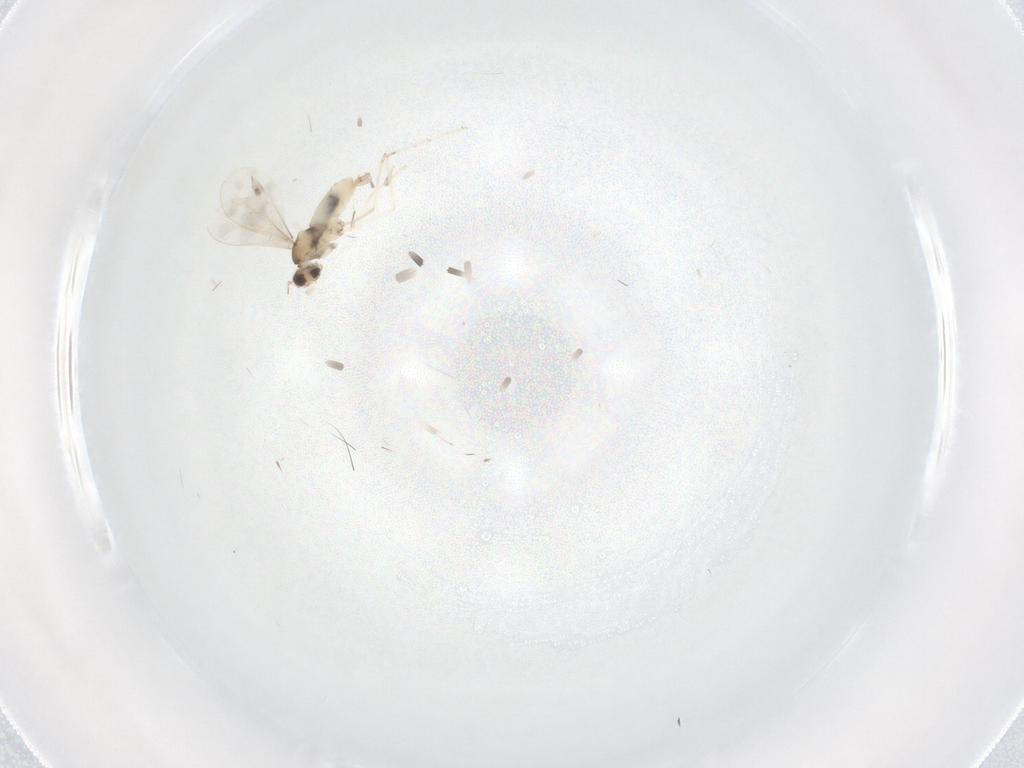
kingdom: Animalia
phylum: Arthropoda
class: Insecta
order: Diptera
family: Cecidomyiidae
